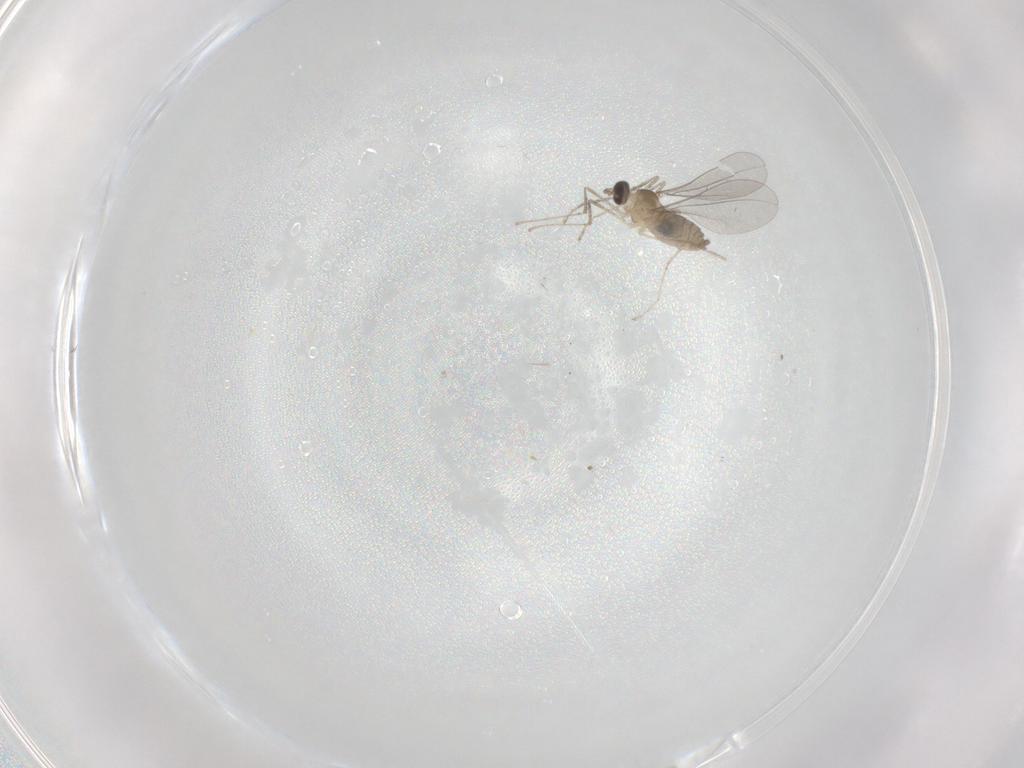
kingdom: Animalia
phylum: Arthropoda
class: Insecta
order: Diptera
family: Cecidomyiidae
